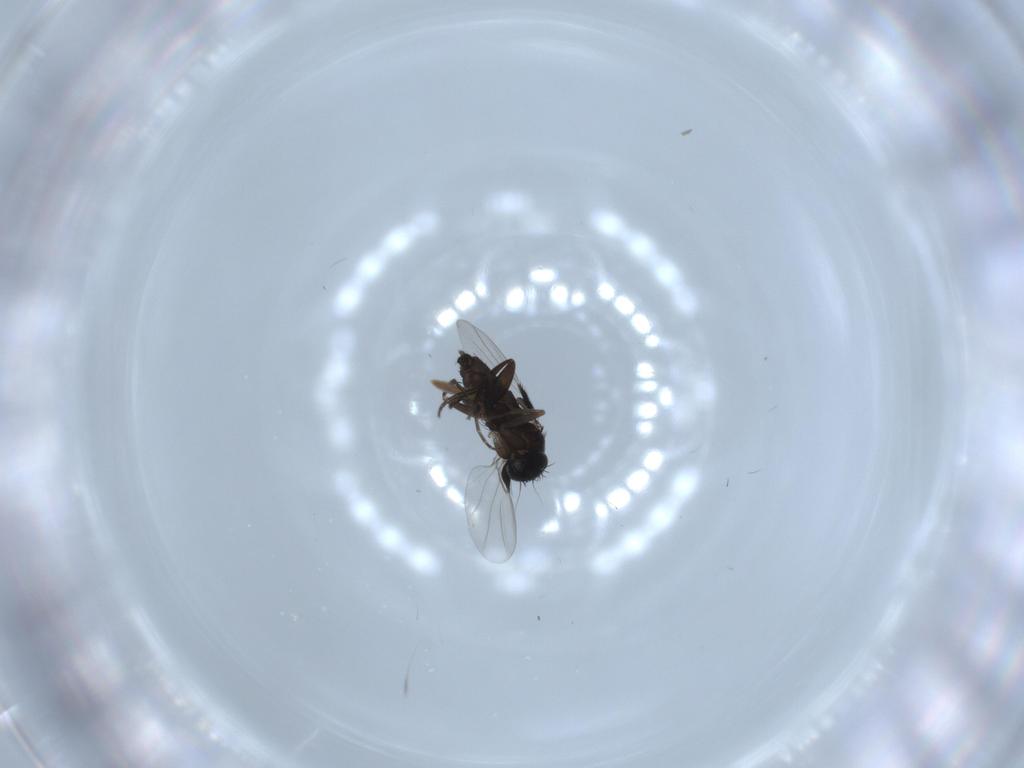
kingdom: Animalia
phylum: Arthropoda
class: Insecta
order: Diptera
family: Phoridae
